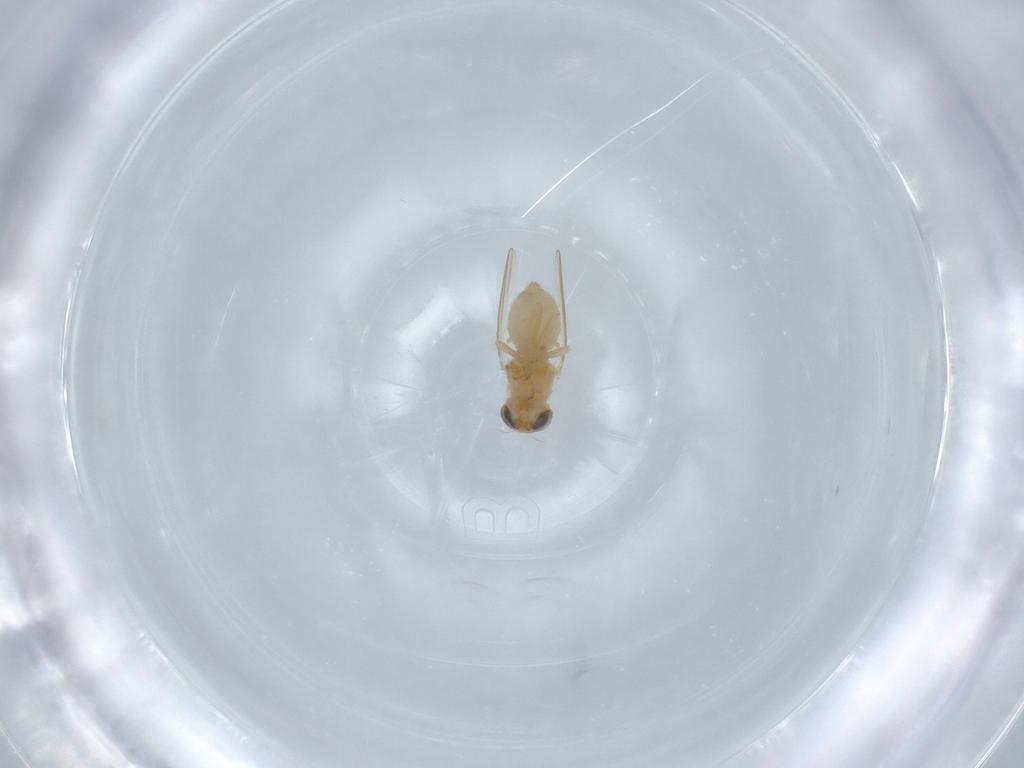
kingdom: Animalia
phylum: Arthropoda
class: Insecta
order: Diptera
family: Chyromyidae
